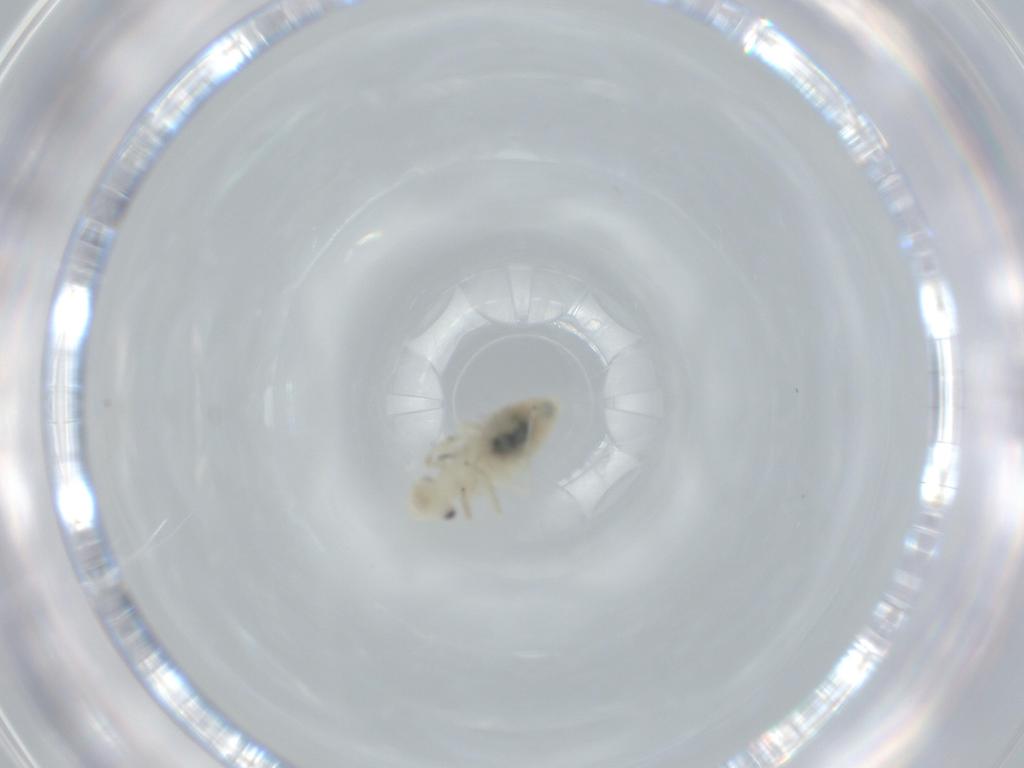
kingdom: Animalia
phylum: Arthropoda
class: Insecta
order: Psocodea
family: Caeciliusidae
